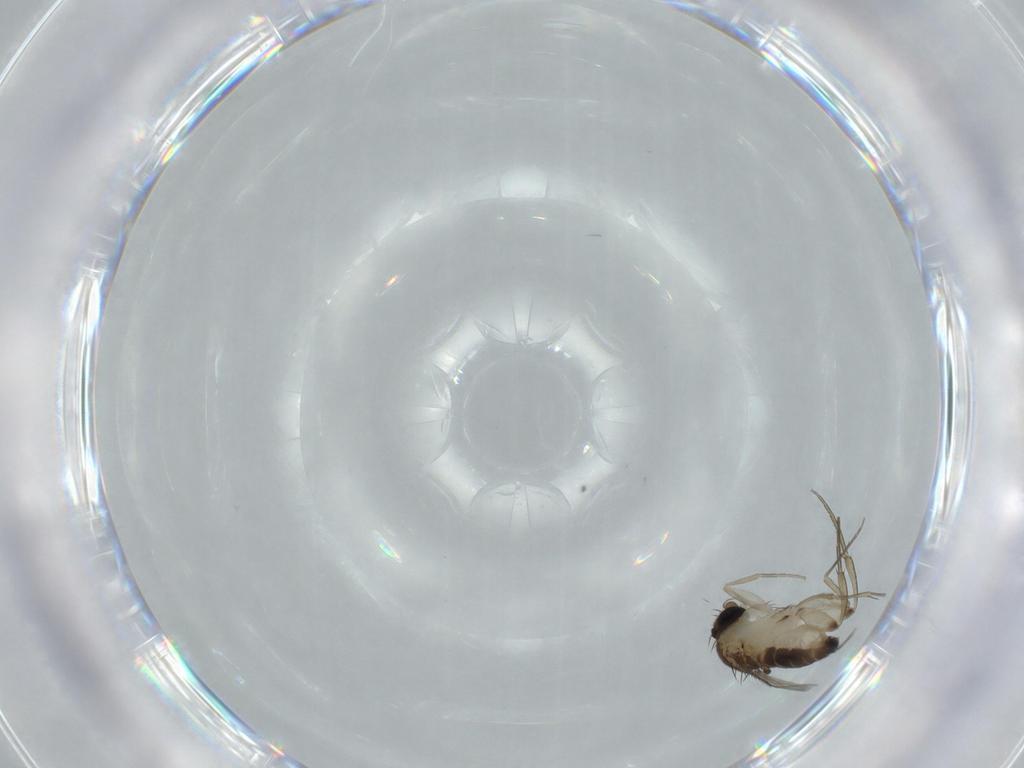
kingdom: Animalia
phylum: Arthropoda
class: Insecta
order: Diptera
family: Phoridae
